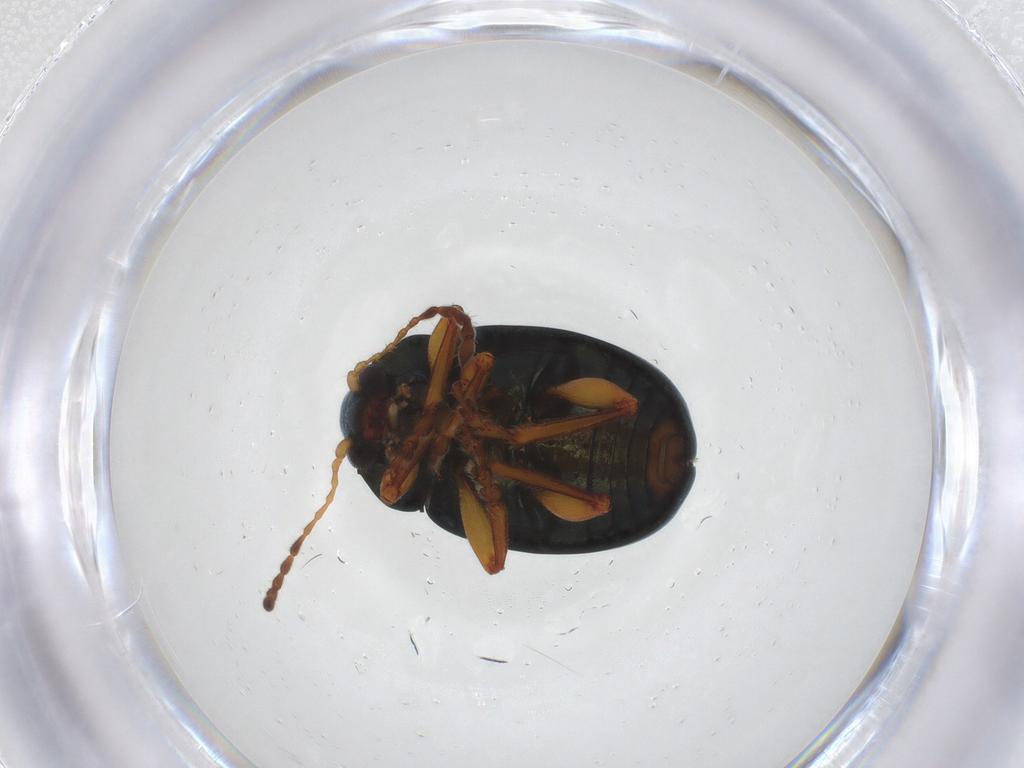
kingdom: Animalia
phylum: Arthropoda
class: Insecta
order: Coleoptera
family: Chrysomelidae
